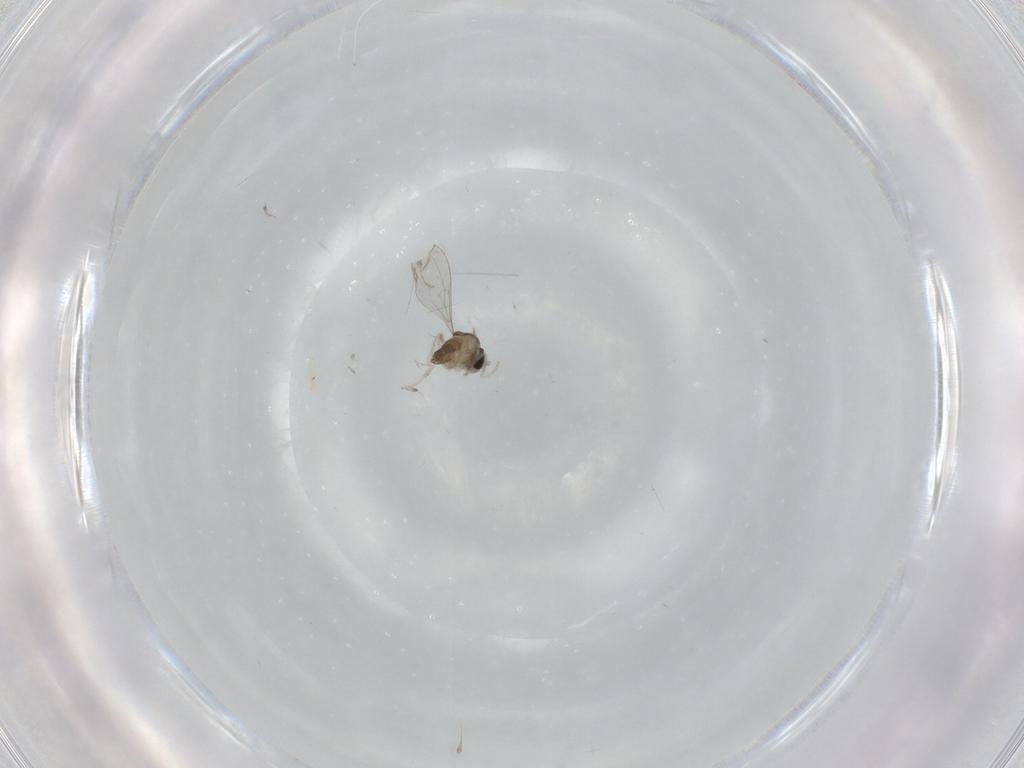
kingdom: Animalia
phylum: Arthropoda
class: Insecta
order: Diptera
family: Cecidomyiidae
